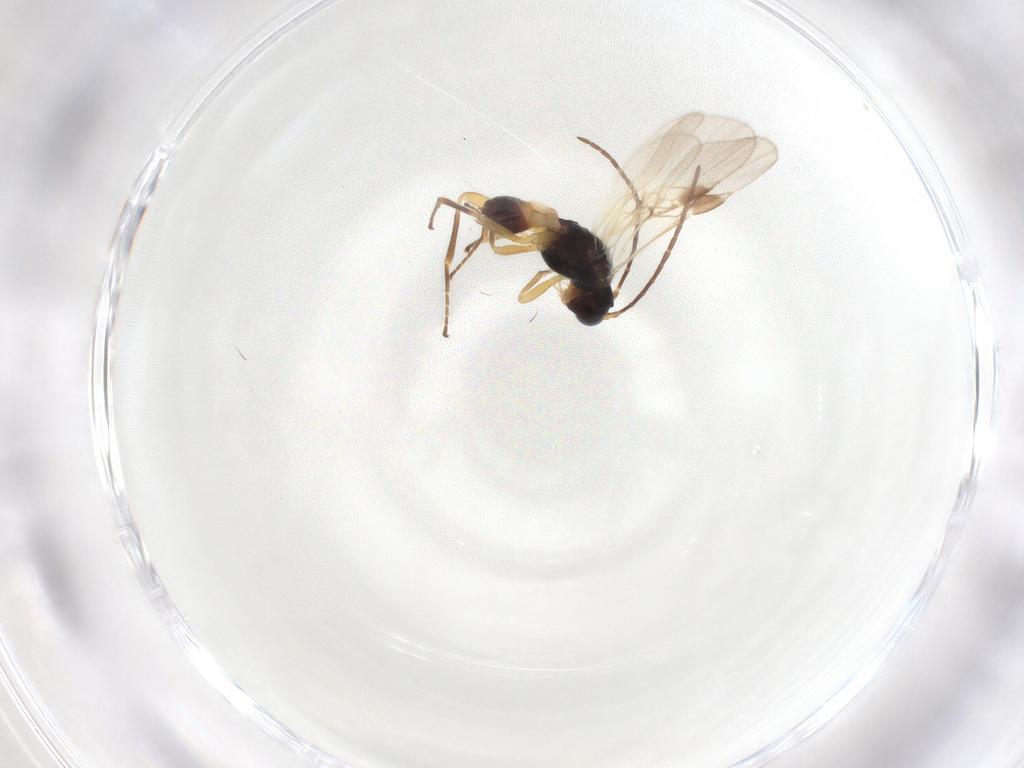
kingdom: Animalia
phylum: Arthropoda
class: Insecta
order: Hymenoptera
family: Braconidae
